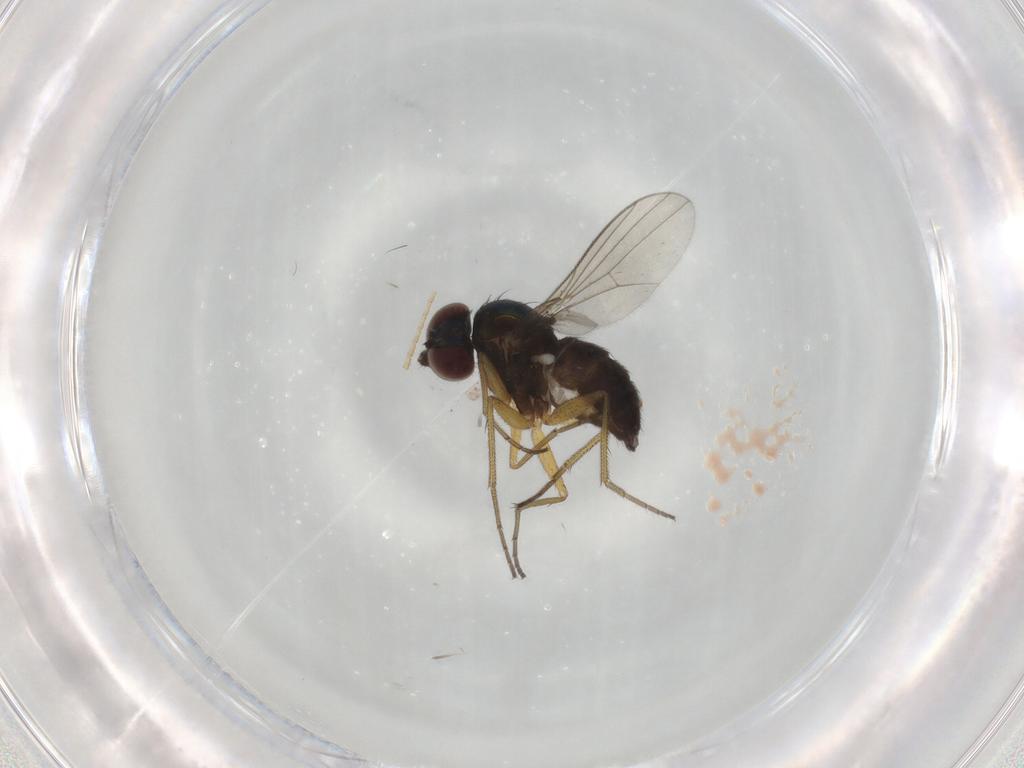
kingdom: Animalia
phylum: Arthropoda
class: Insecta
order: Diptera
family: Dolichopodidae
